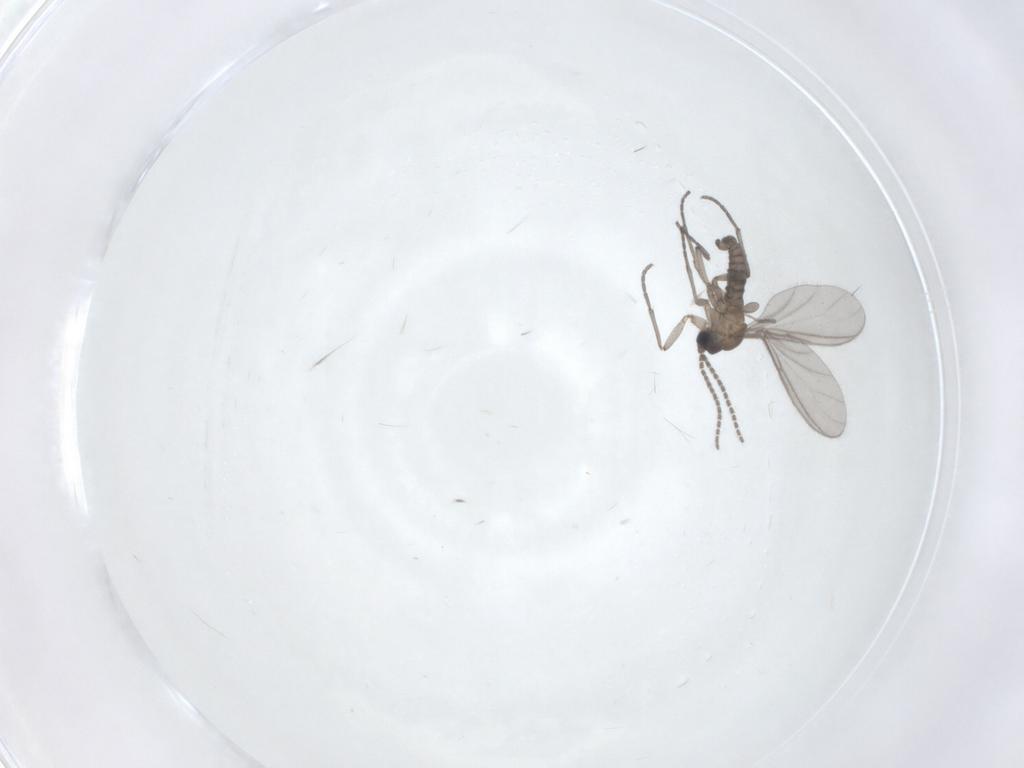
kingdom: Animalia
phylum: Arthropoda
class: Insecta
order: Diptera
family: Sciaridae
